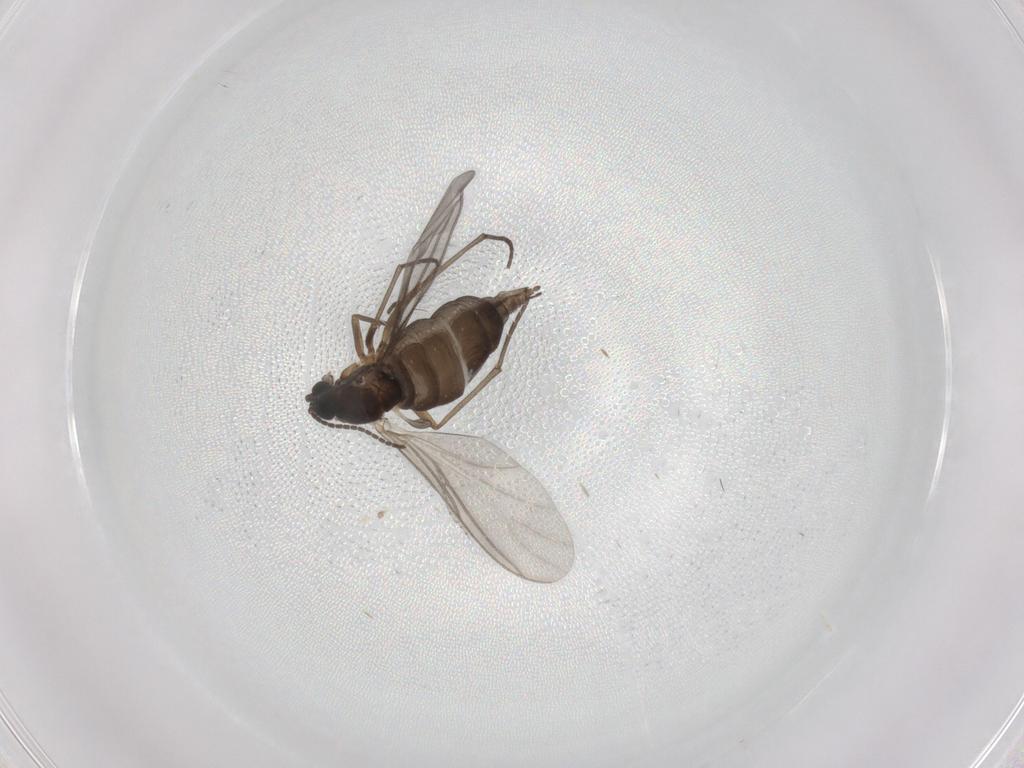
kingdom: Animalia
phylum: Arthropoda
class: Insecta
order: Diptera
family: Sciaridae
